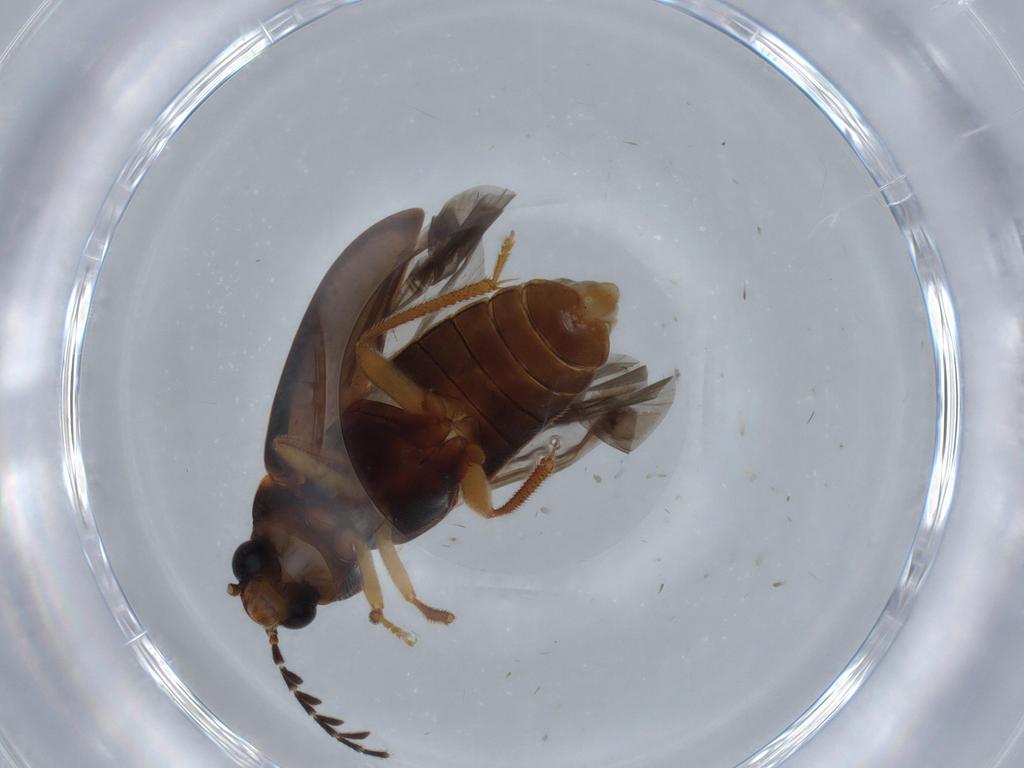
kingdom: Animalia
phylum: Arthropoda
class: Insecta
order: Coleoptera
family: Ptilodactylidae
